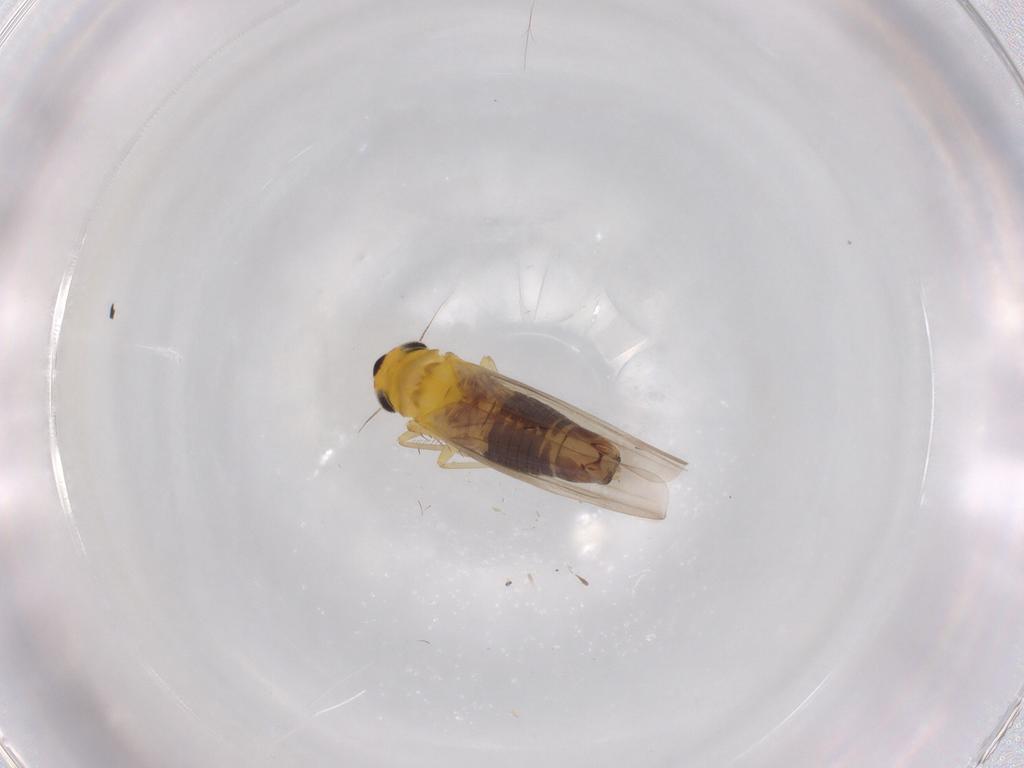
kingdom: Animalia
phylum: Arthropoda
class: Insecta
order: Hemiptera
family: Cicadellidae
